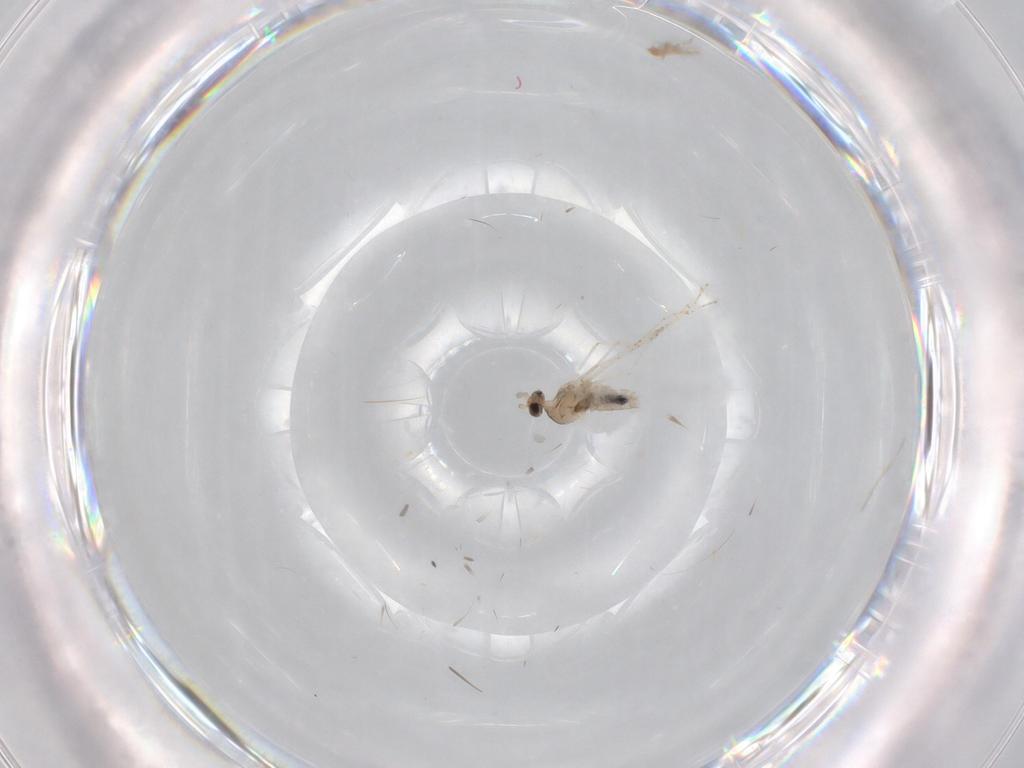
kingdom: Animalia
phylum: Arthropoda
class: Insecta
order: Diptera
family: Cecidomyiidae
